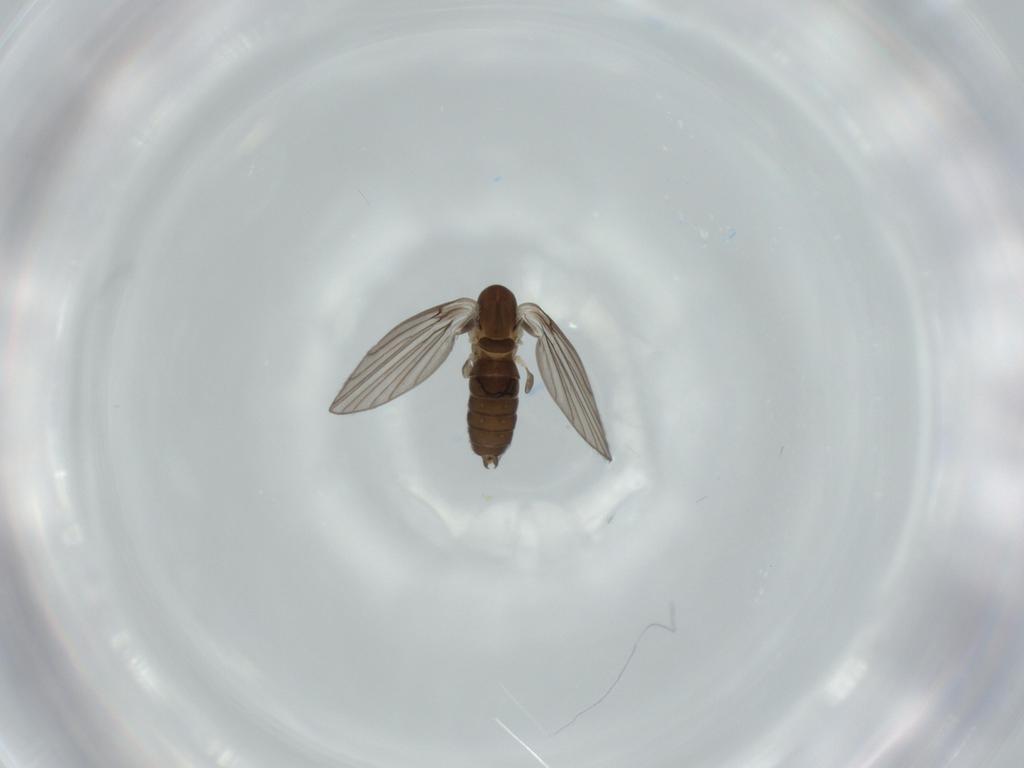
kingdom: Animalia
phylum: Arthropoda
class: Insecta
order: Diptera
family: Psychodidae
